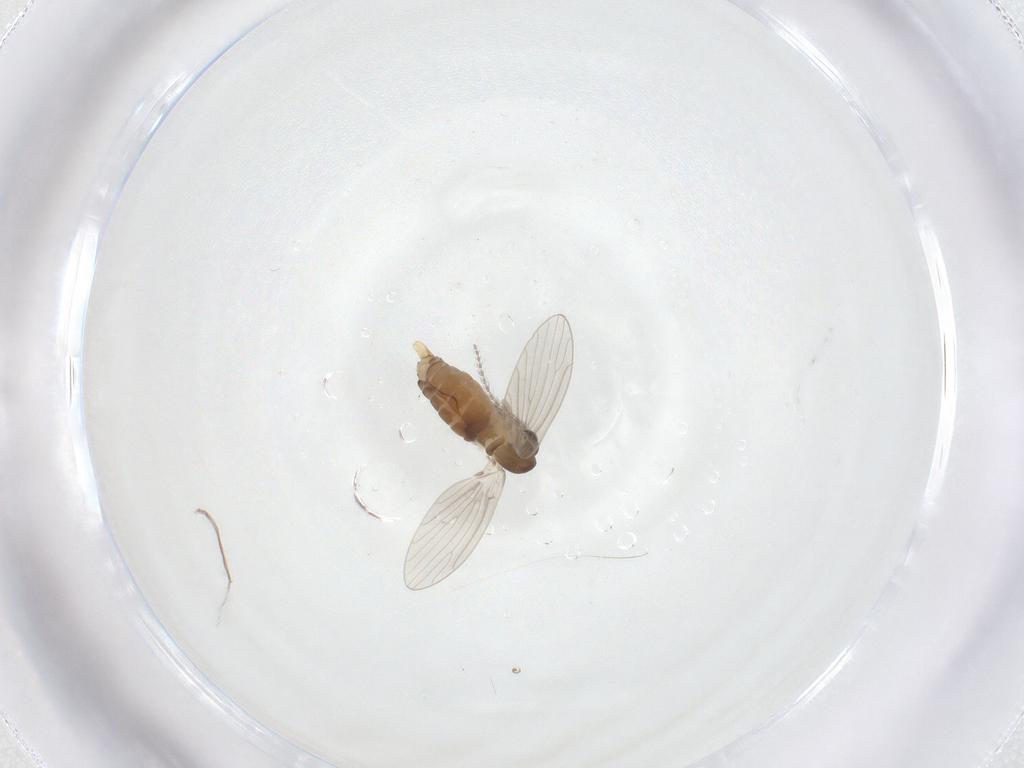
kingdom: Animalia
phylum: Arthropoda
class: Insecta
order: Diptera
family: Psychodidae
